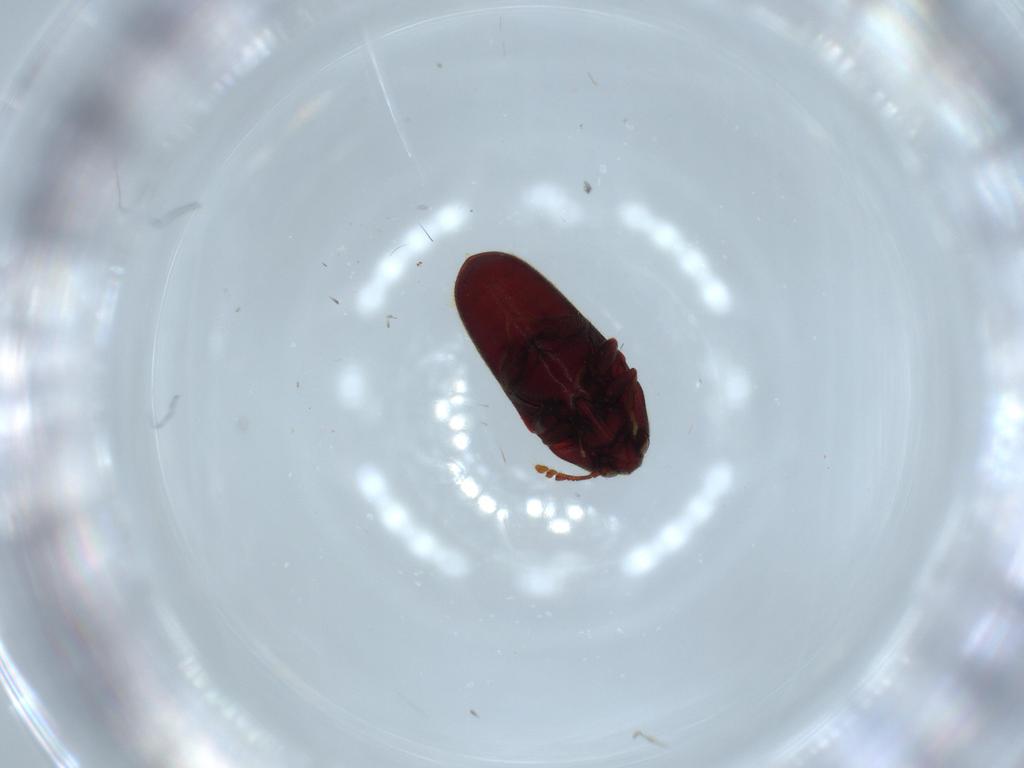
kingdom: Animalia
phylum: Arthropoda
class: Insecta
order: Coleoptera
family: Throscidae
